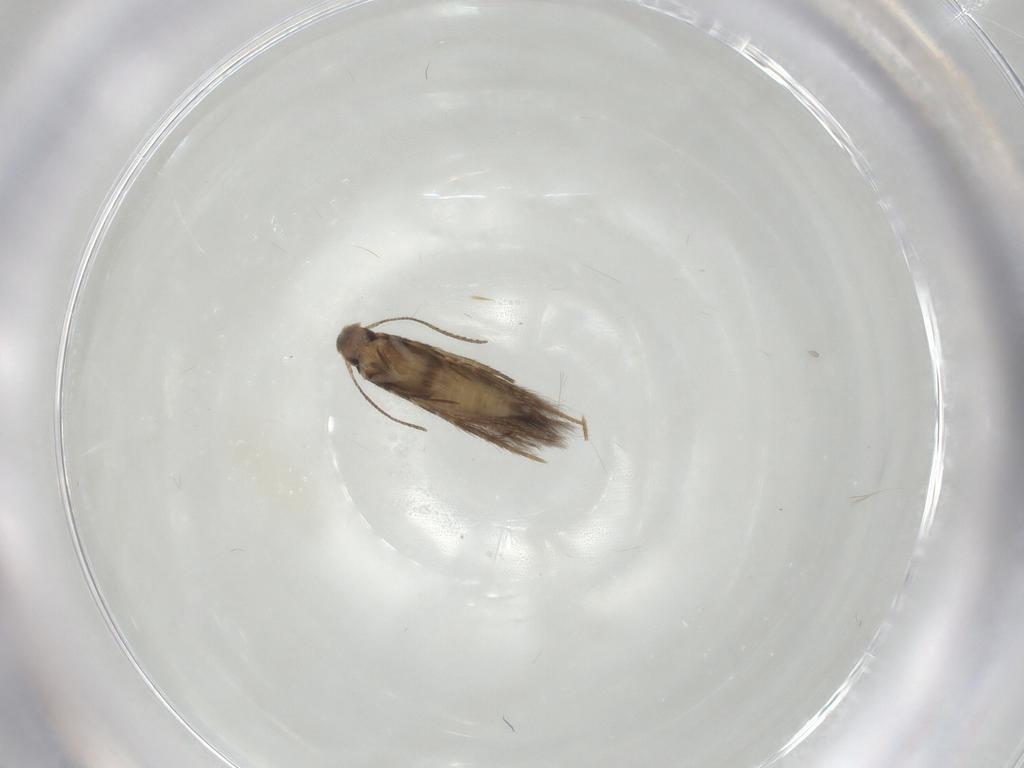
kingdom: Animalia
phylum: Arthropoda
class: Insecta
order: Lepidoptera
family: Pyralidae
